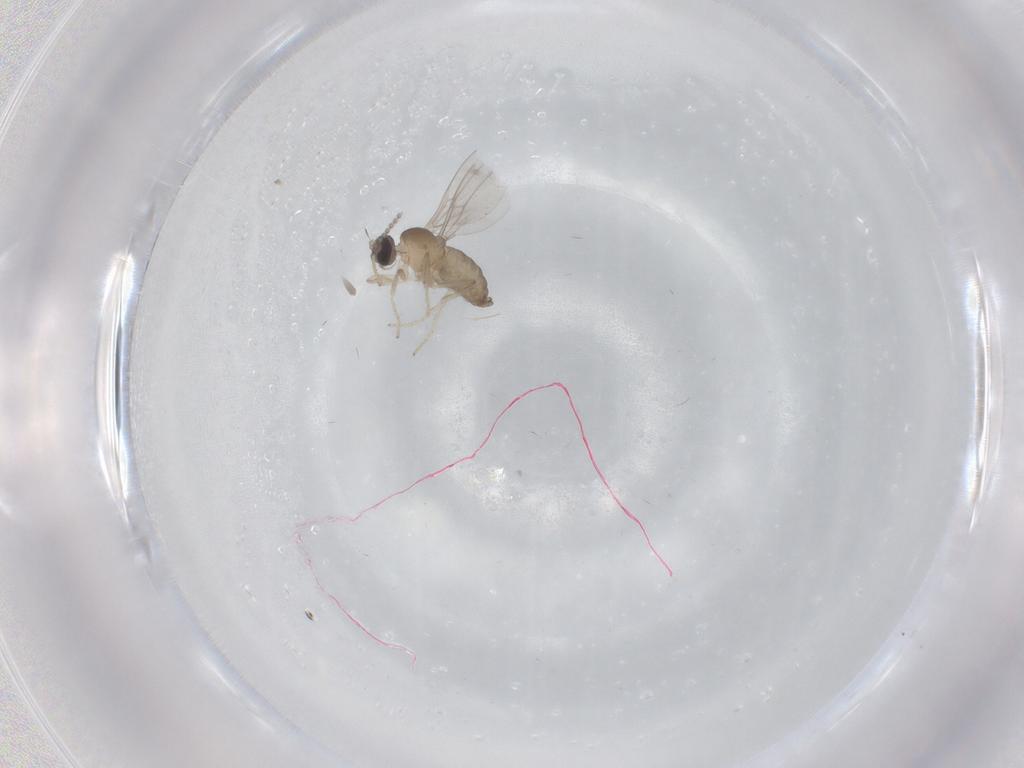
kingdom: Animalia
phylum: Arthropoda
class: Insecta
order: Diptera
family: Cecidomyiidae
